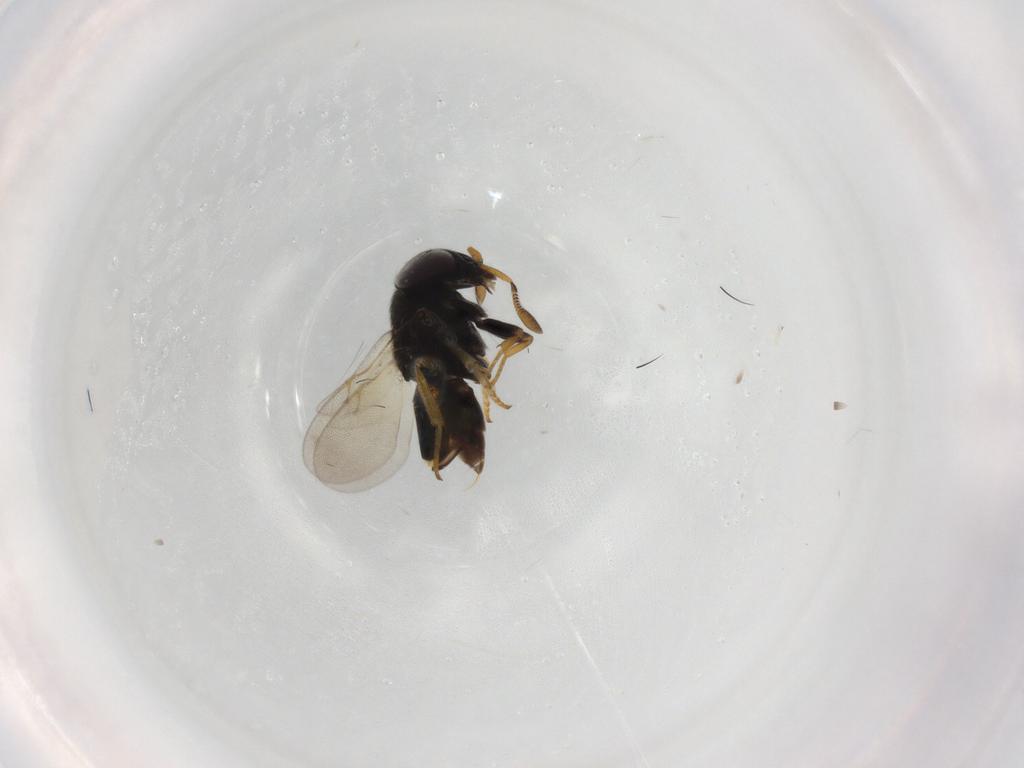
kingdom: Animalia
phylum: Arthropoda
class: Insecta
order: Hymenoptera
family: Encyrtidae
